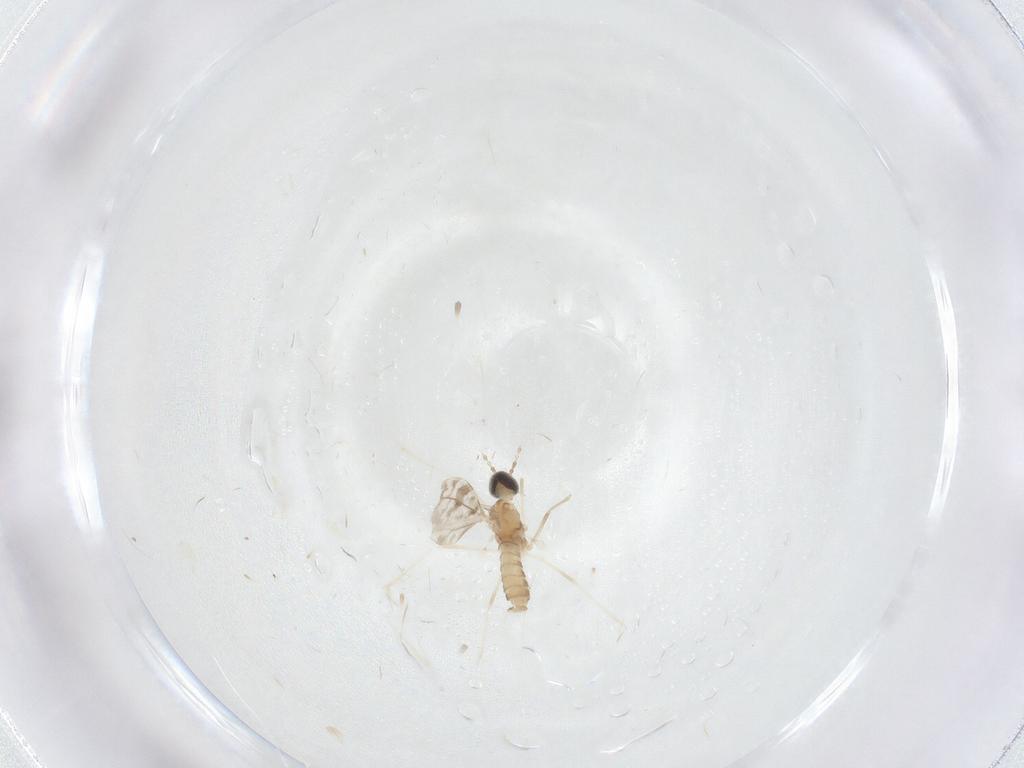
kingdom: Animalia
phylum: Arthropoda
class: Insecta
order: Diptera
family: Cecidomyiidae
